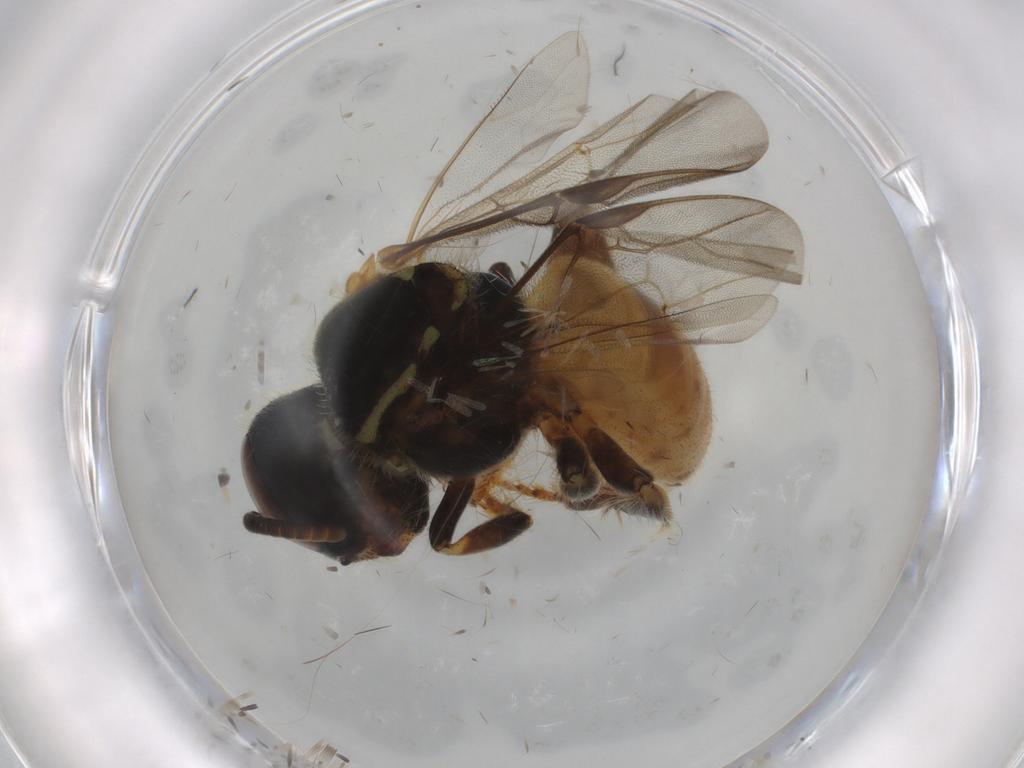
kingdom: Animalia
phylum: Arthropoda
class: Insecta
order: Hymenoptera
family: Apidae
